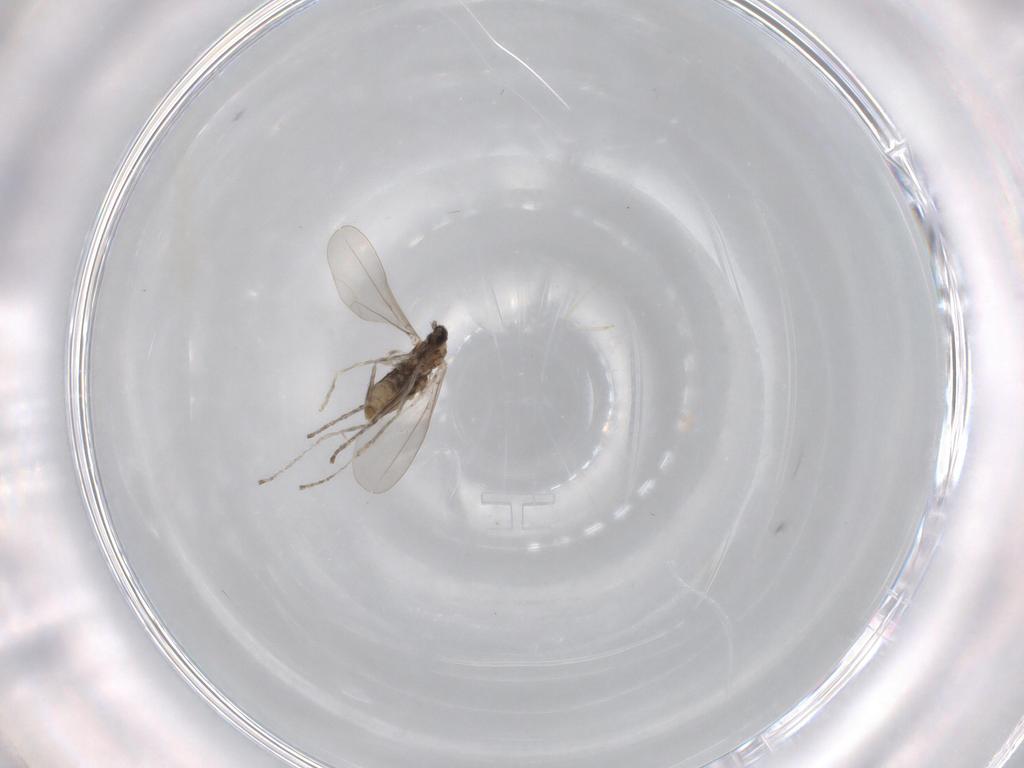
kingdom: Animalia
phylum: Arthropoda
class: Insecta
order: Diptera
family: Cecidomyiidae
